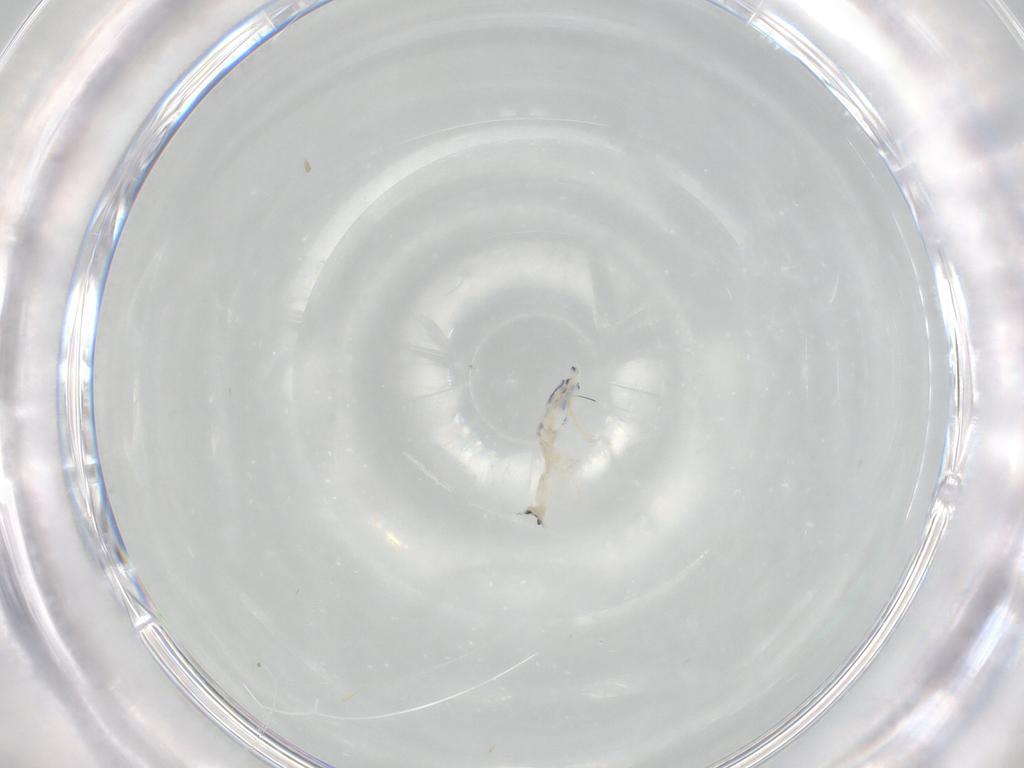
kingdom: Animalia
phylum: Arthropoda
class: Collembola
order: Entomobryomorpha
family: Entomobryidae
